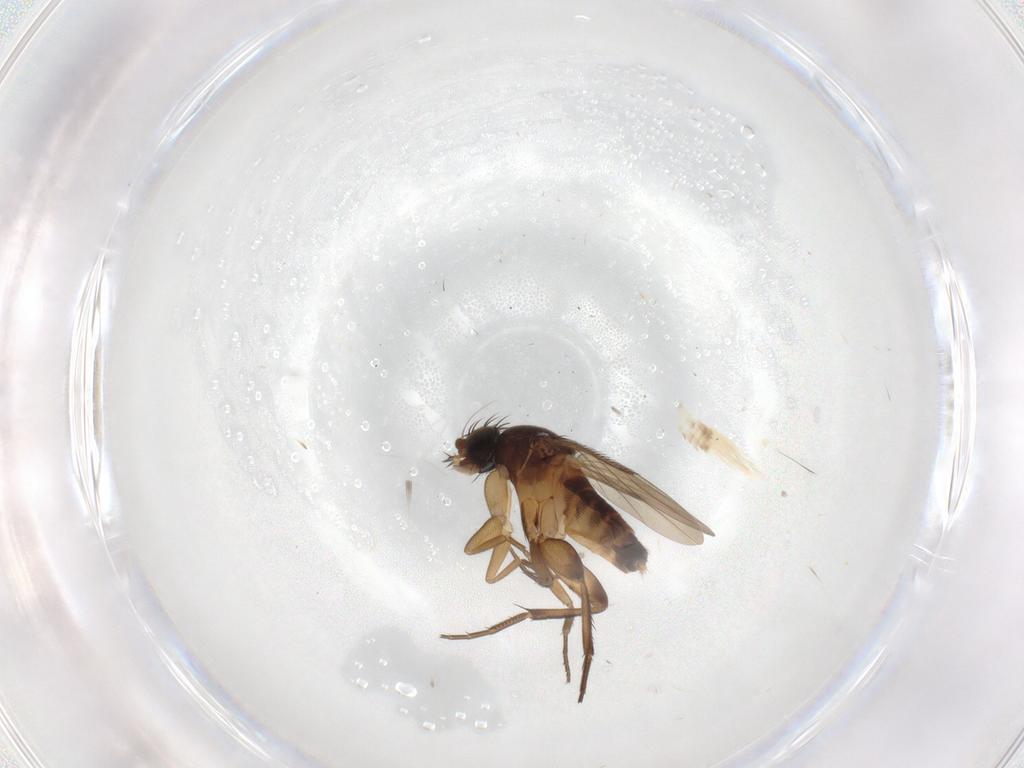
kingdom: Animalia
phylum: Arthropoda
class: Insecta
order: Diptera
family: Phoridae
